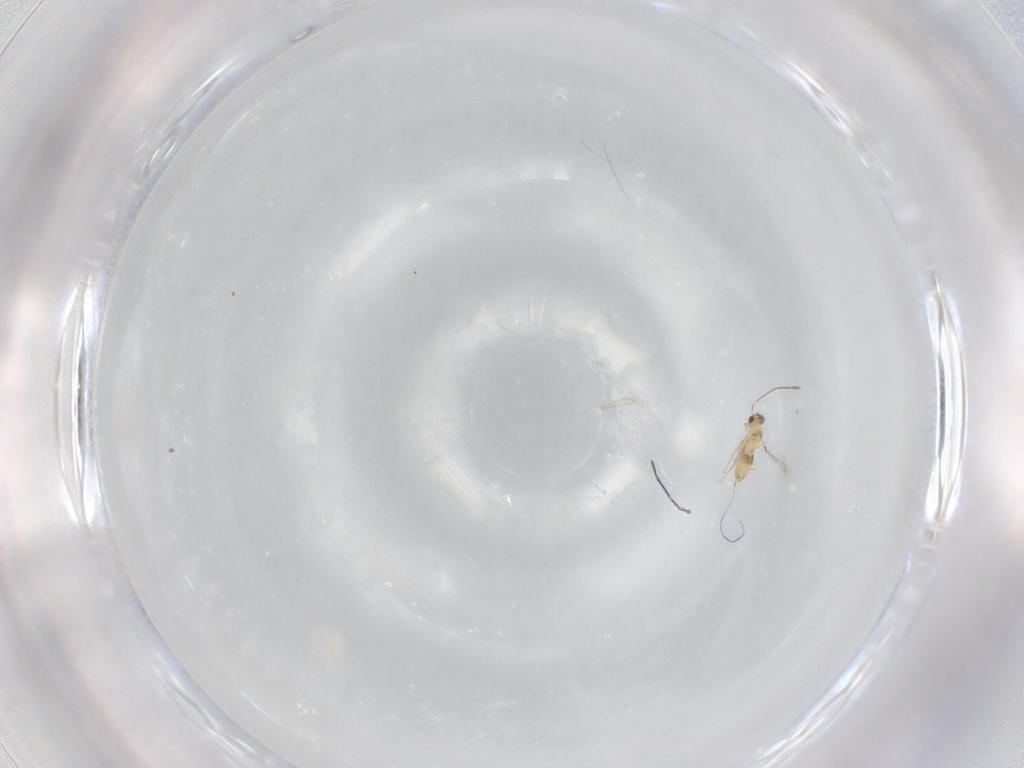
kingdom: Animalia
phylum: Arthropoda
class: Insecta
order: Hymenoptera
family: Mymaridae
